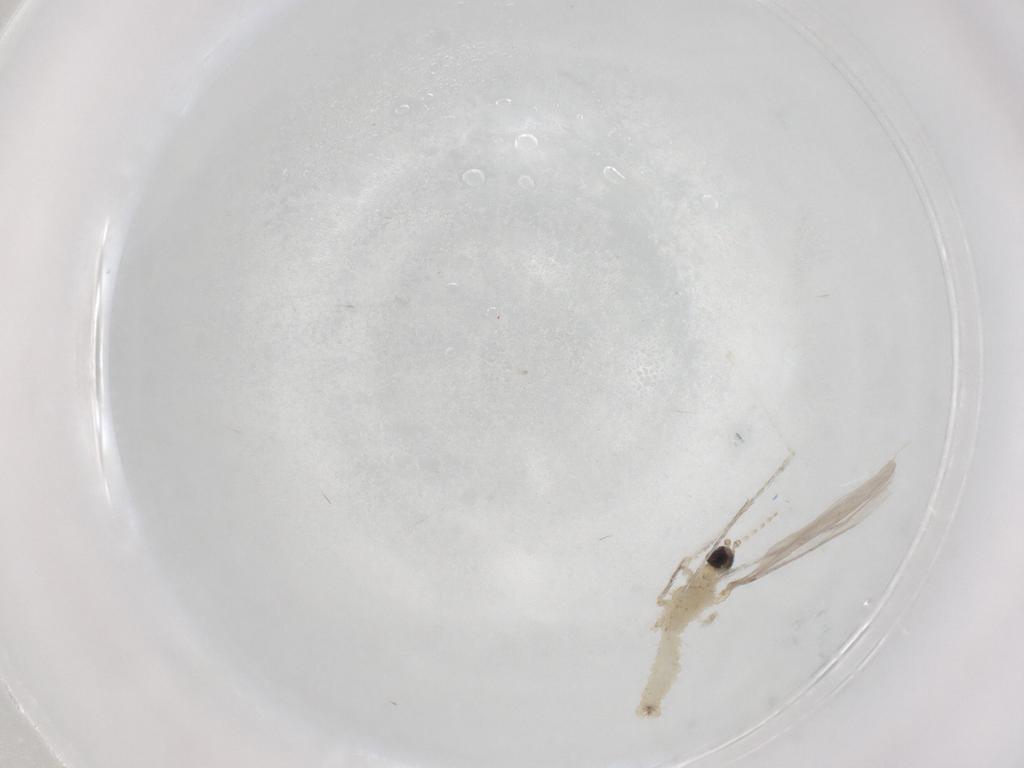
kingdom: Animalia
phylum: Arthropoda
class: Insecta
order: Diptera
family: Cecidomyiidae
